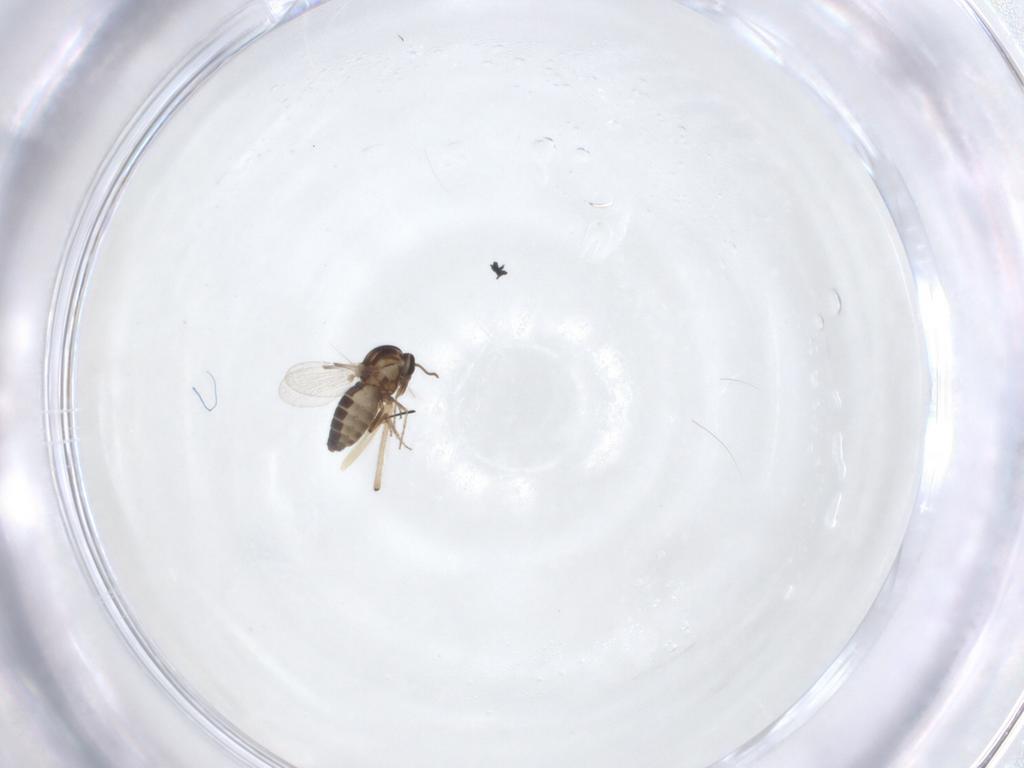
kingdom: Animalia
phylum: Arthropoda
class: Insecta
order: Diptera
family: Ceratopogonidae
